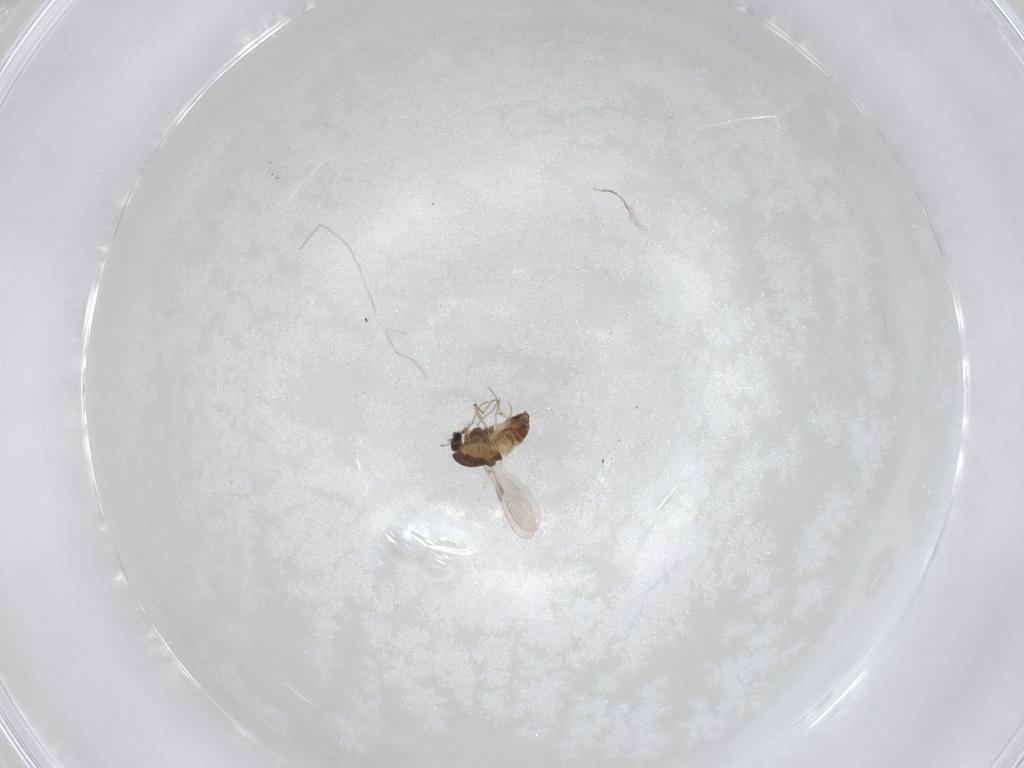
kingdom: Animalia
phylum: Arthropoda
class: Insecta
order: Diptera
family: Chironomidae
